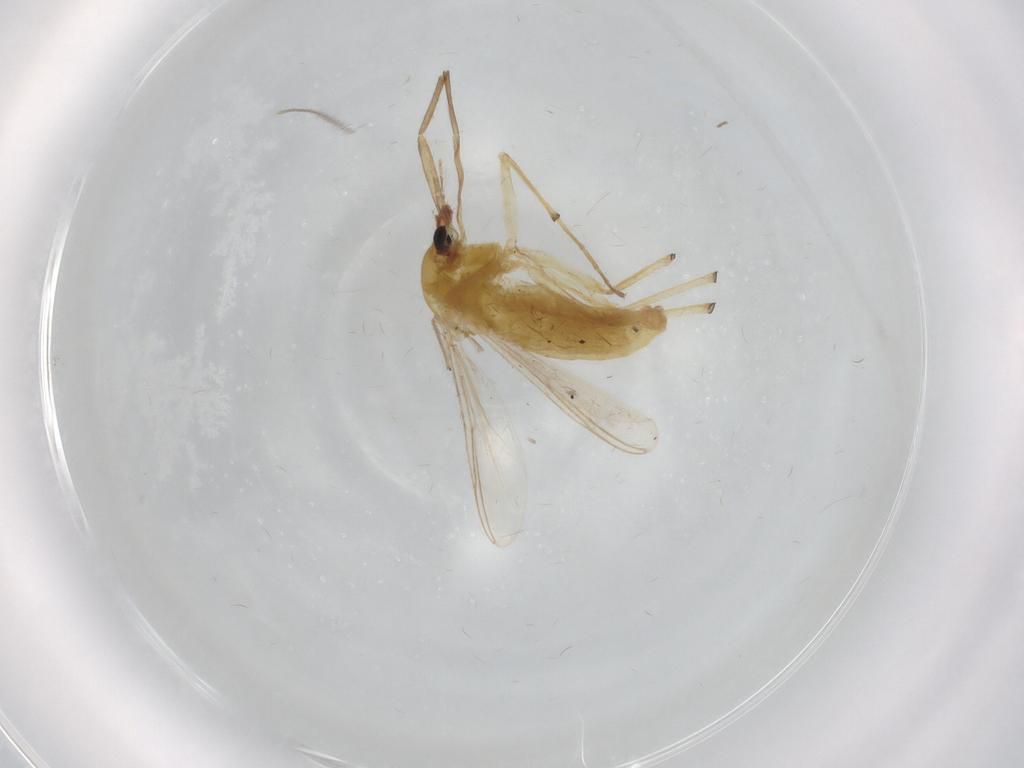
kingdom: Animalia
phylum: Arthropoda
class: Insecta
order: Diptera
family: Chironomidae
